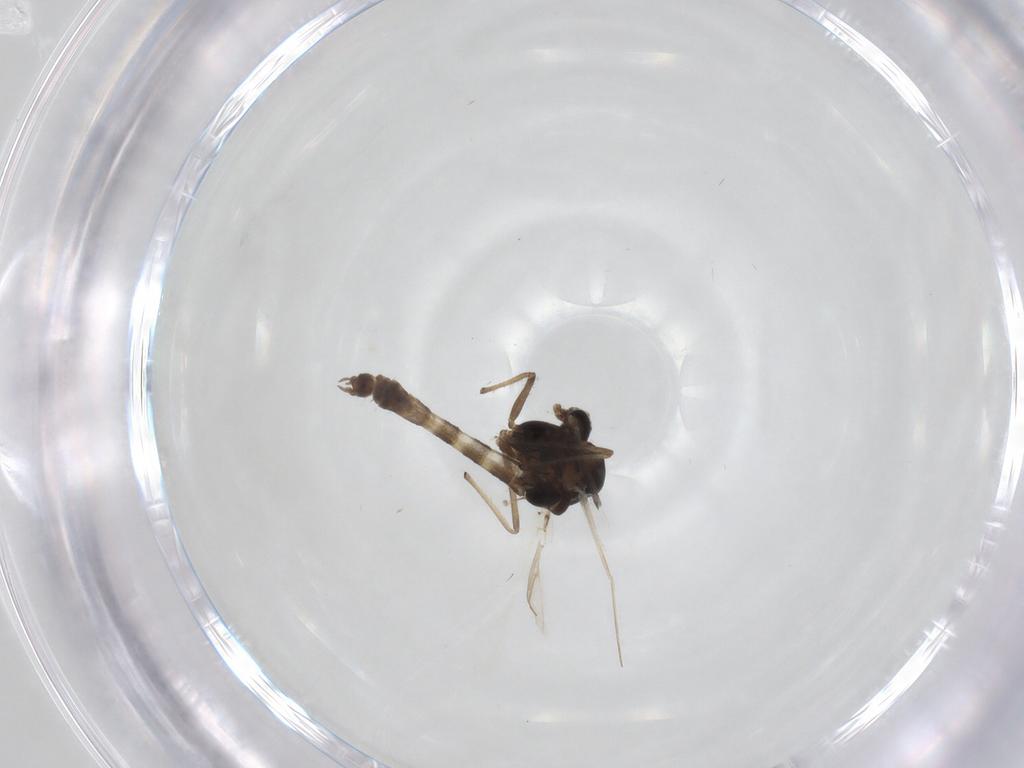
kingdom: Animalia
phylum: Arthropoda
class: Insecta
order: Diptera
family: Chironomidae
